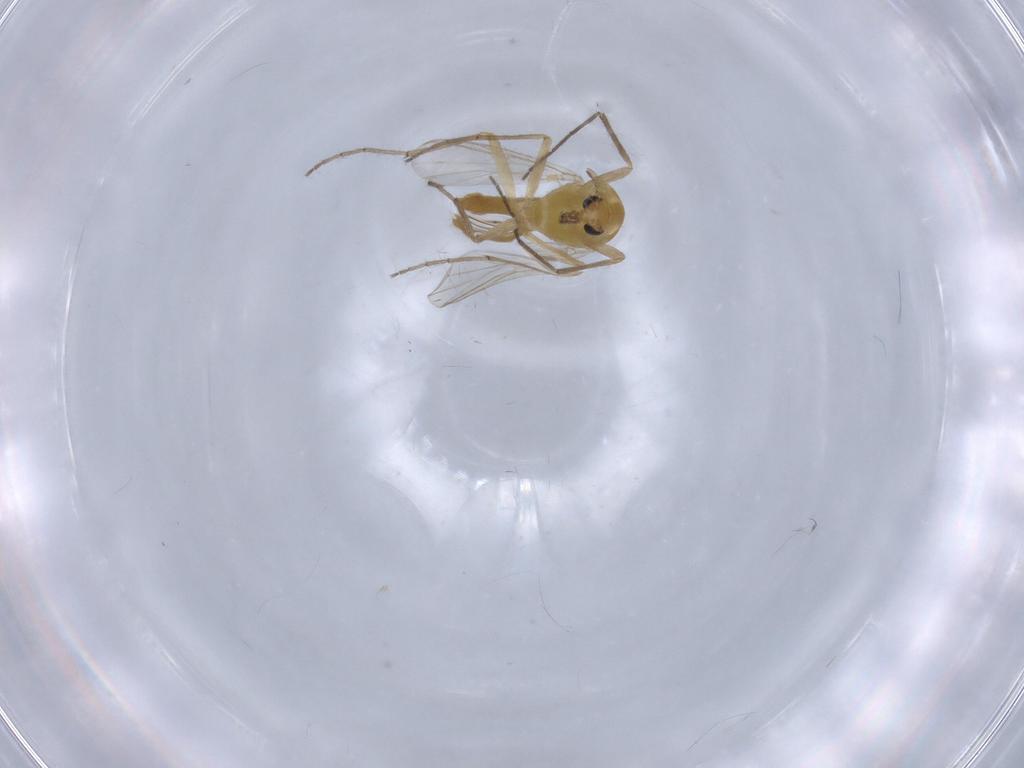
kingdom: Animalia
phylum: Arthropoda
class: Insecta
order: Diptera
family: Chironomidae
